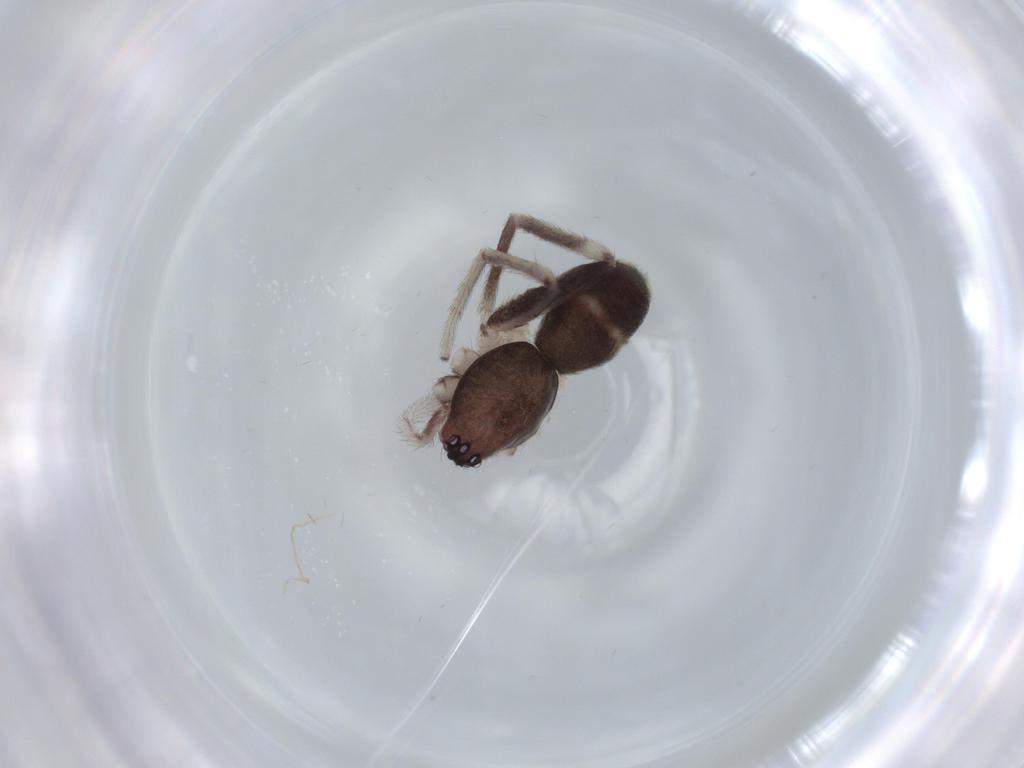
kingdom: Animalia
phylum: Arthropoda
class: Arachnida
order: Araneae
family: Corinnidae
